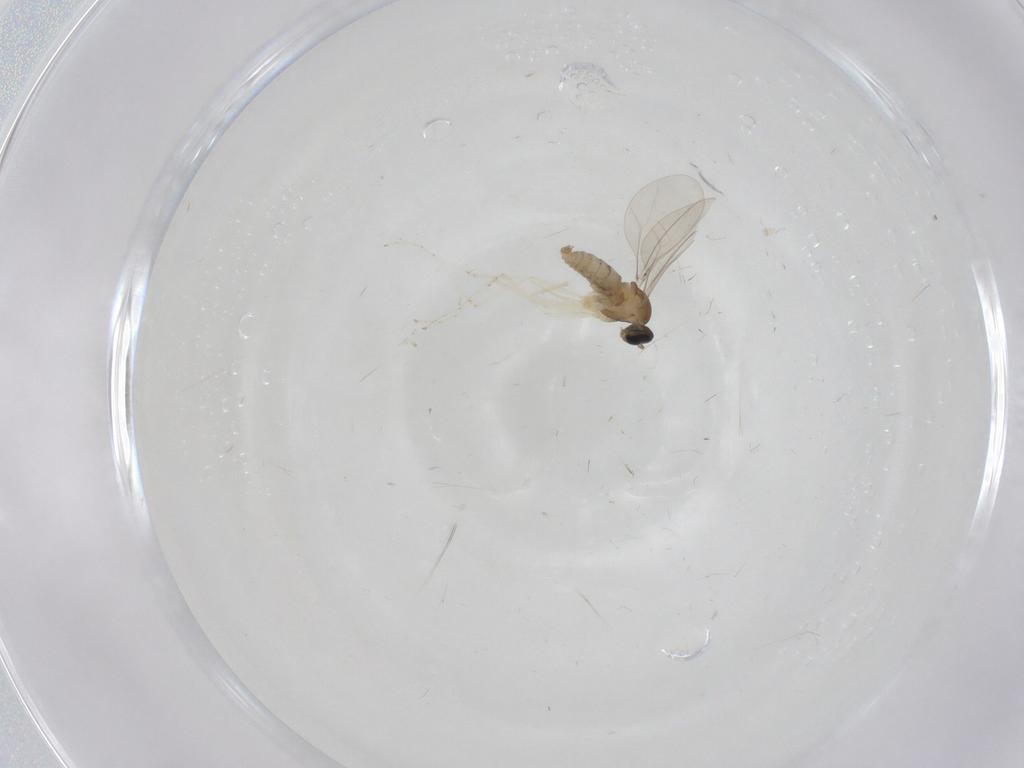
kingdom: Animalia
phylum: Arthropoda
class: Insecta
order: Diptera
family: Cecidomyiidae
